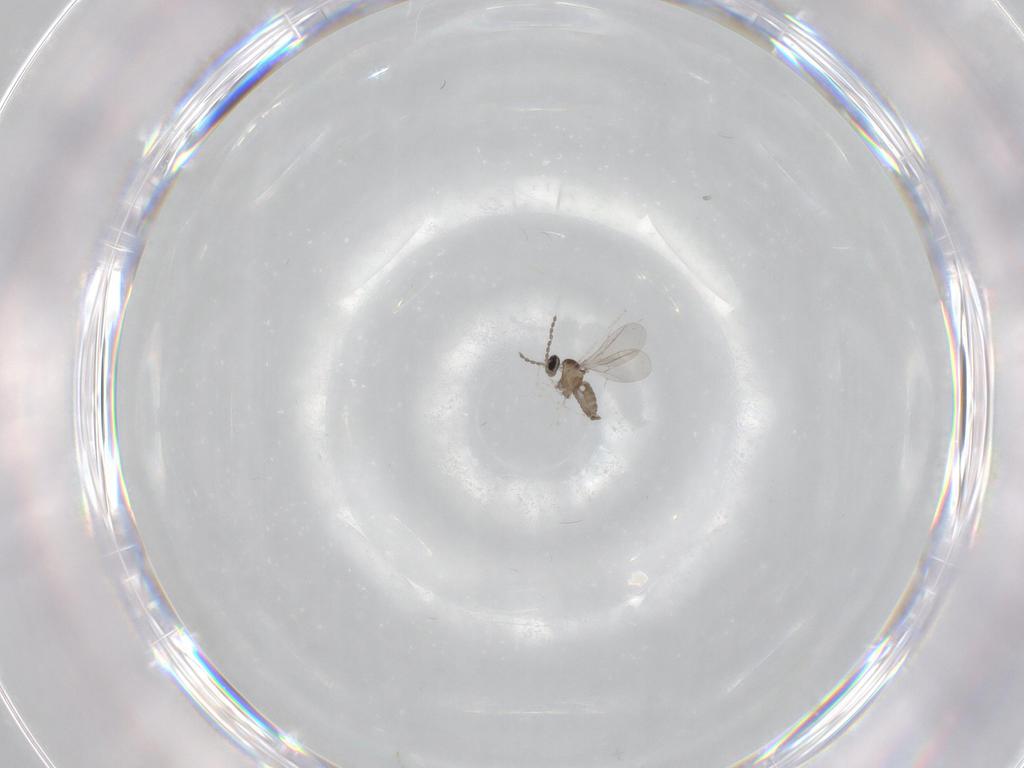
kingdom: Animalia
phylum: Arthropoda
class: Insecta
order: Diptera
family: Cecidomyiidae
